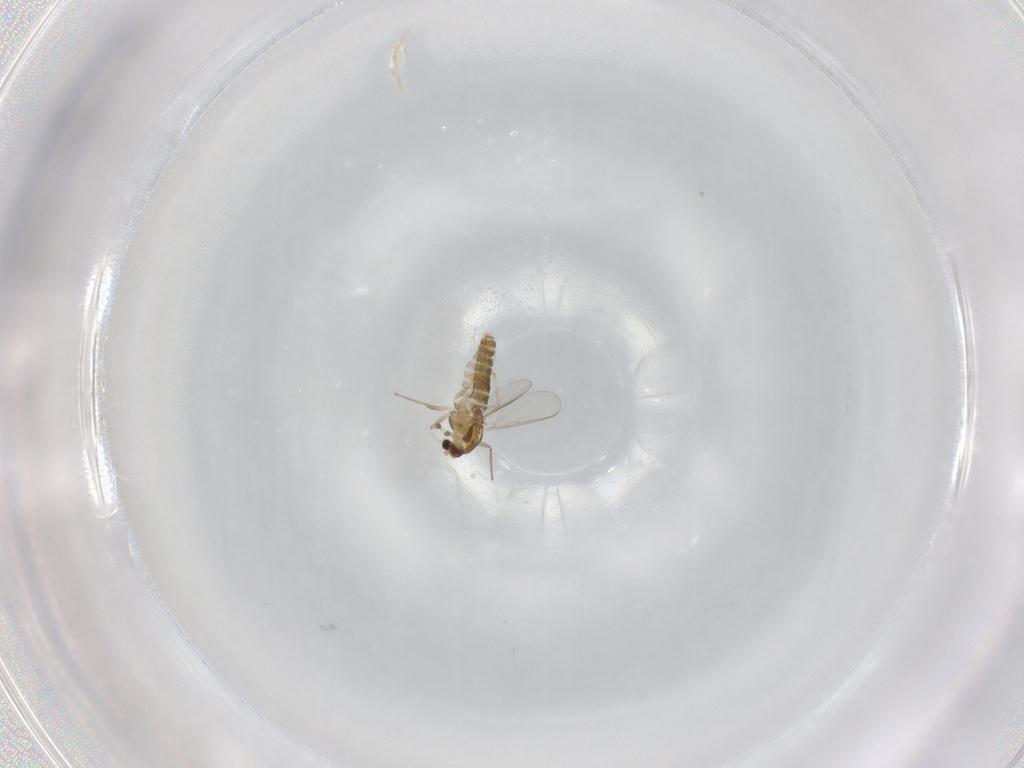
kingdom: Animalia
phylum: Arthropoda
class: Insecta
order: Diptera
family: Chironomidae
